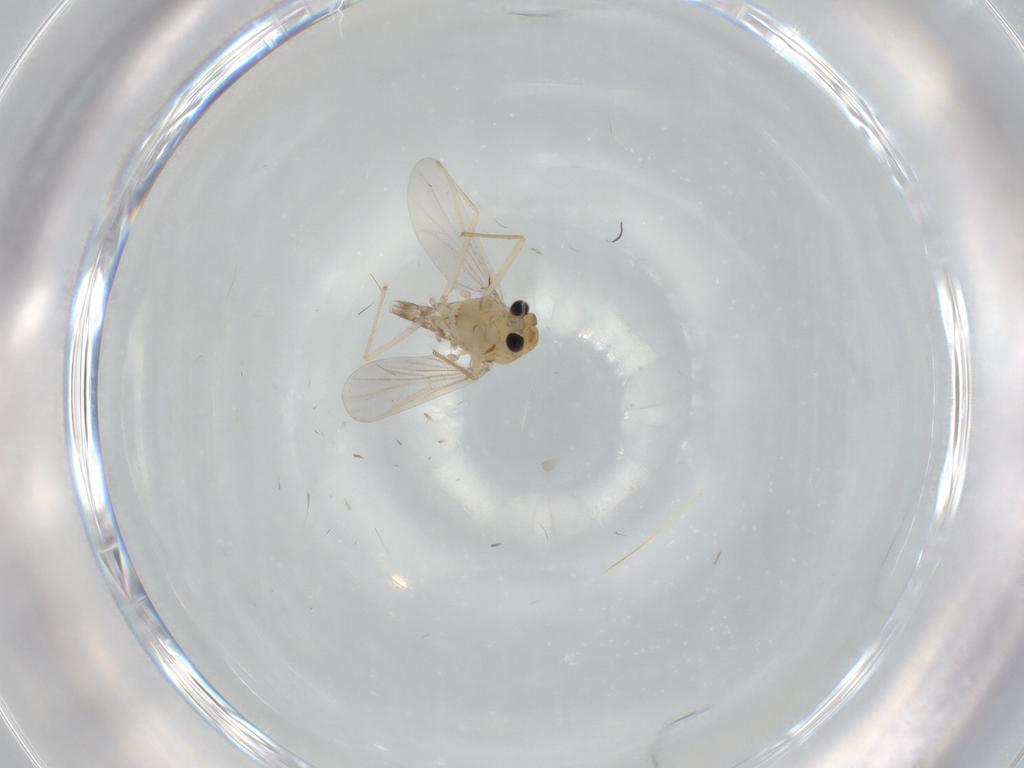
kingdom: Animalia
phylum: Arthropoda
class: Insecta
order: Diptera
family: Chironomidae
